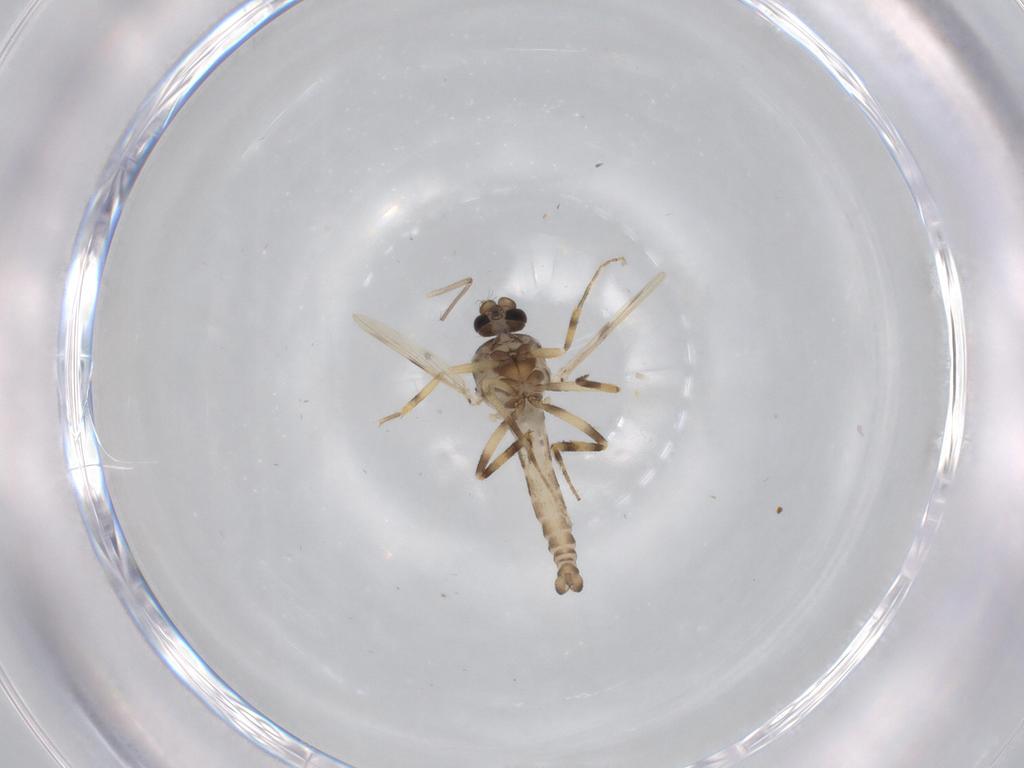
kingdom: Animalia
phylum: Arthropoda
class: Insecta
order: Diptera
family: Ceratopogonidae
